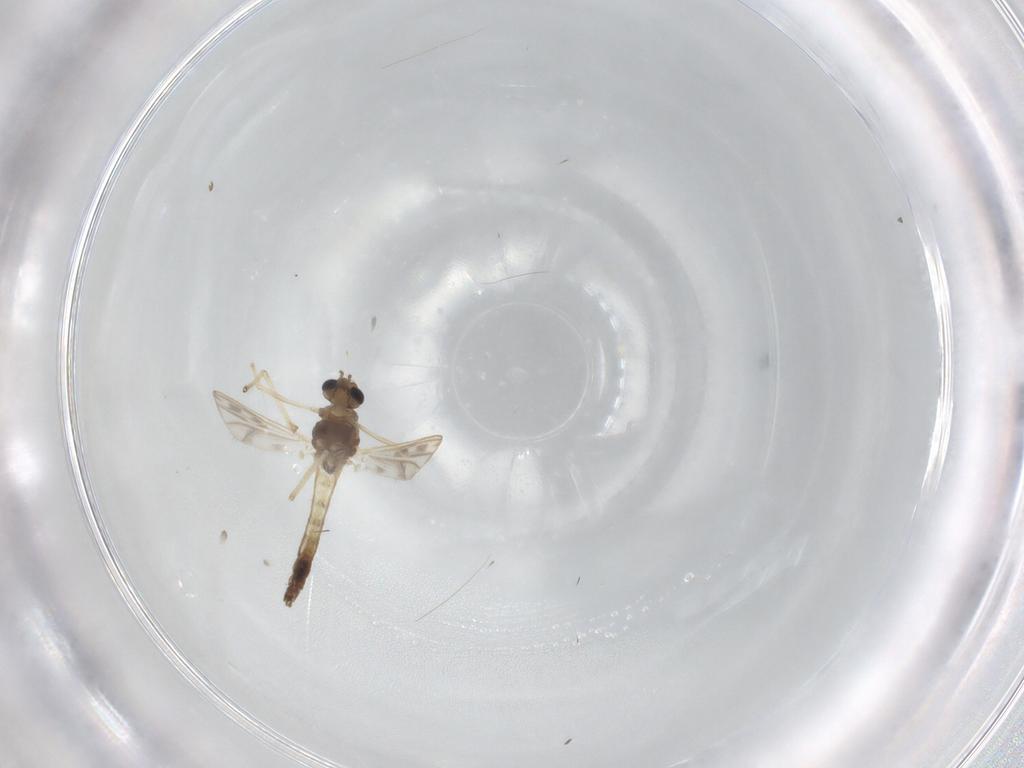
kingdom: Animalia
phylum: Arthropoda
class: Insecta
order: Diptera
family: Chironomidae
